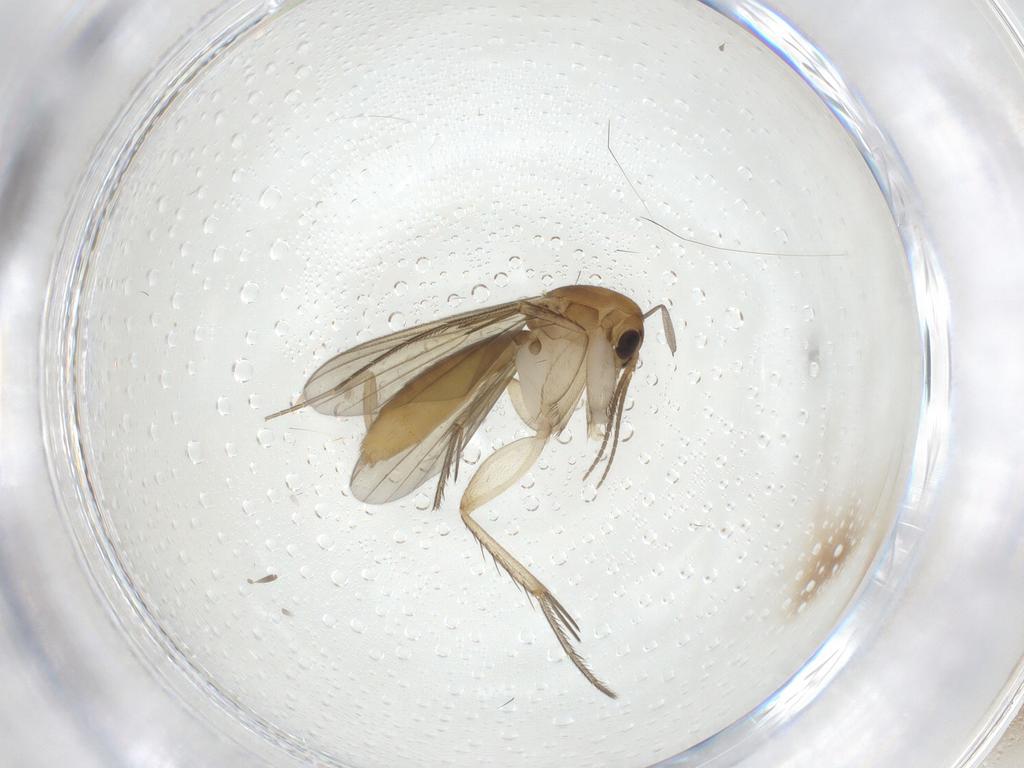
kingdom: Animalia
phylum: Arthropoda
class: Insecta
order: Diptera
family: Mycetophilidae
